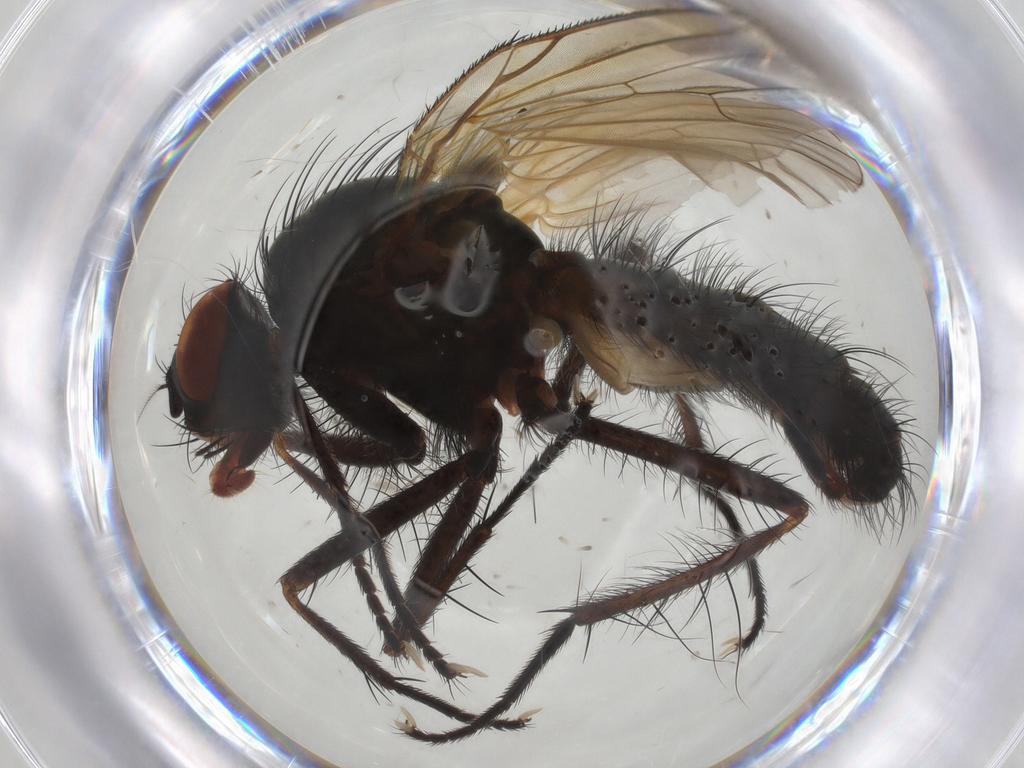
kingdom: Animalia
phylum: Arthropoda
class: Insecta
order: Diptera
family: Anthomyiidae
